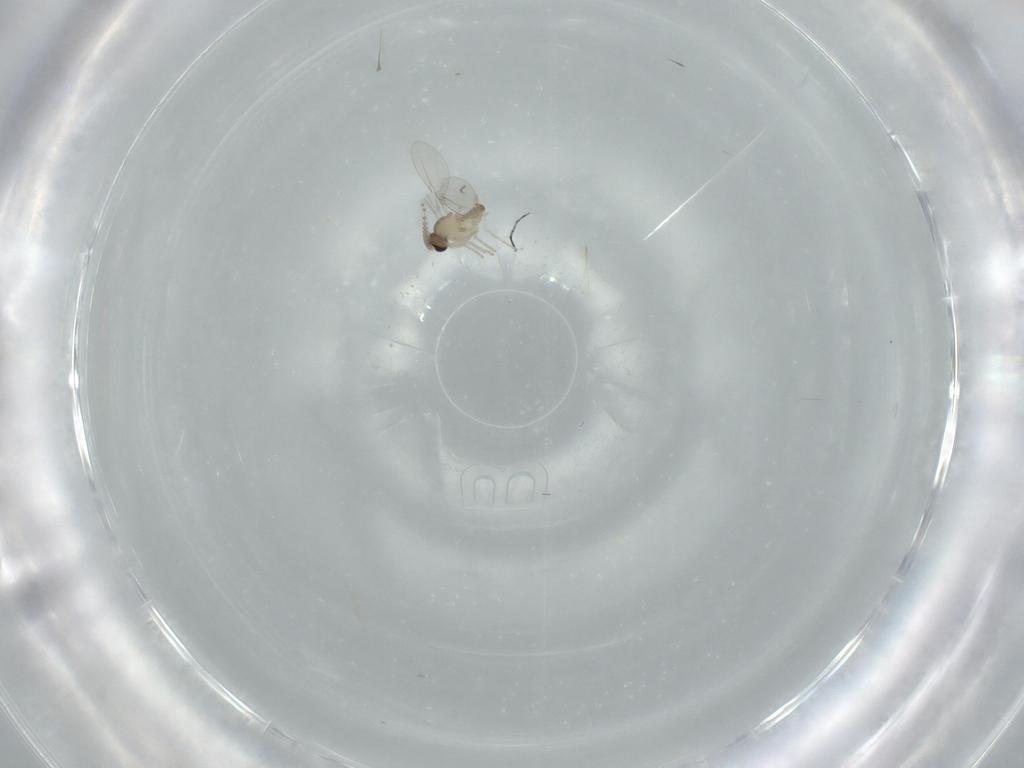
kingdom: Animalia
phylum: Arthropoda
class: Insecta
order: Diptera
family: Cecidomyiidae
